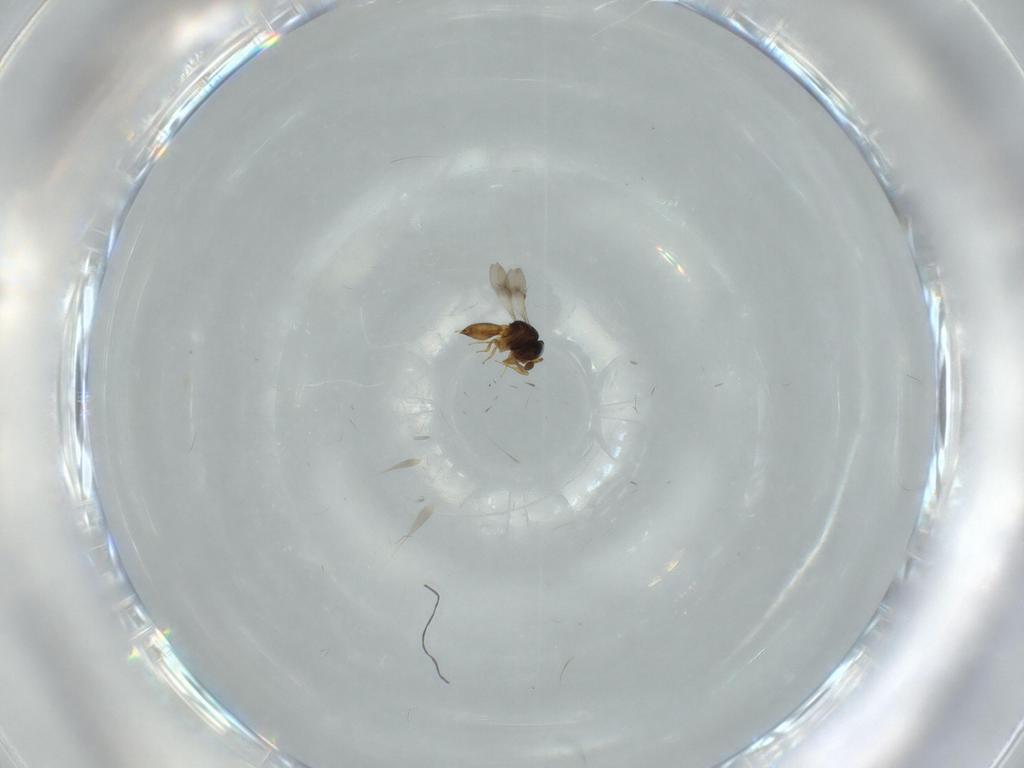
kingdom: Animalia
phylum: Arthropoda
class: Insecta
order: Hymenoptera
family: Scelionidae
